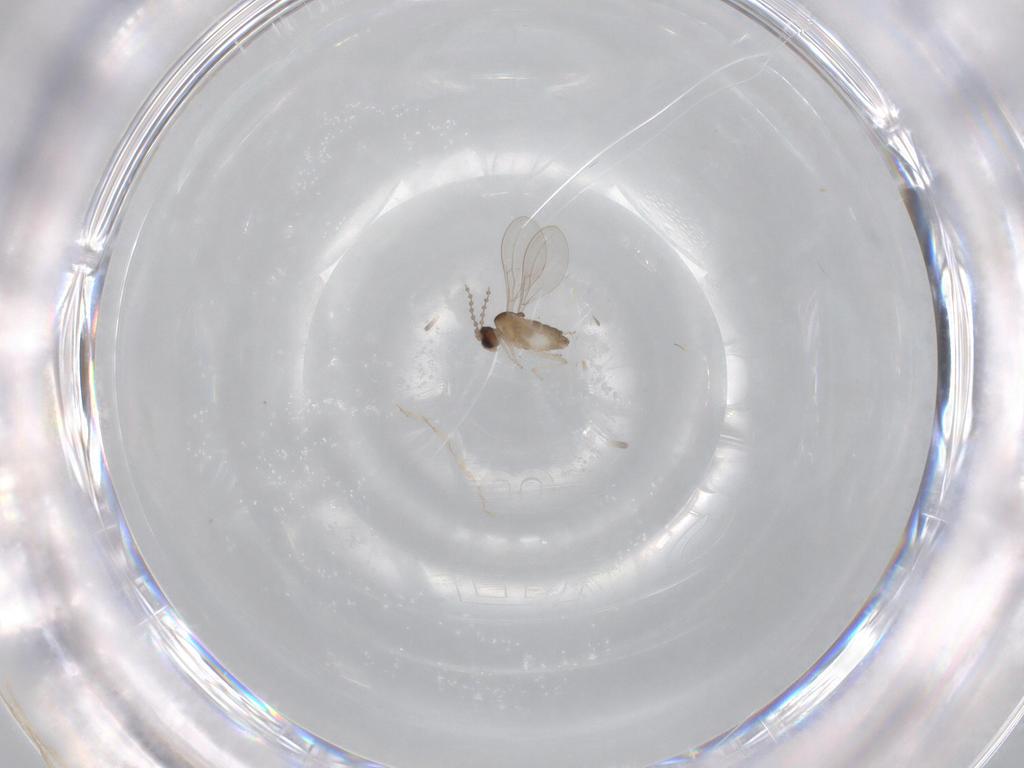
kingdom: Animalia
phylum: Arthropoda
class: Insecta
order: Diptera
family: Cecidomyiidae
